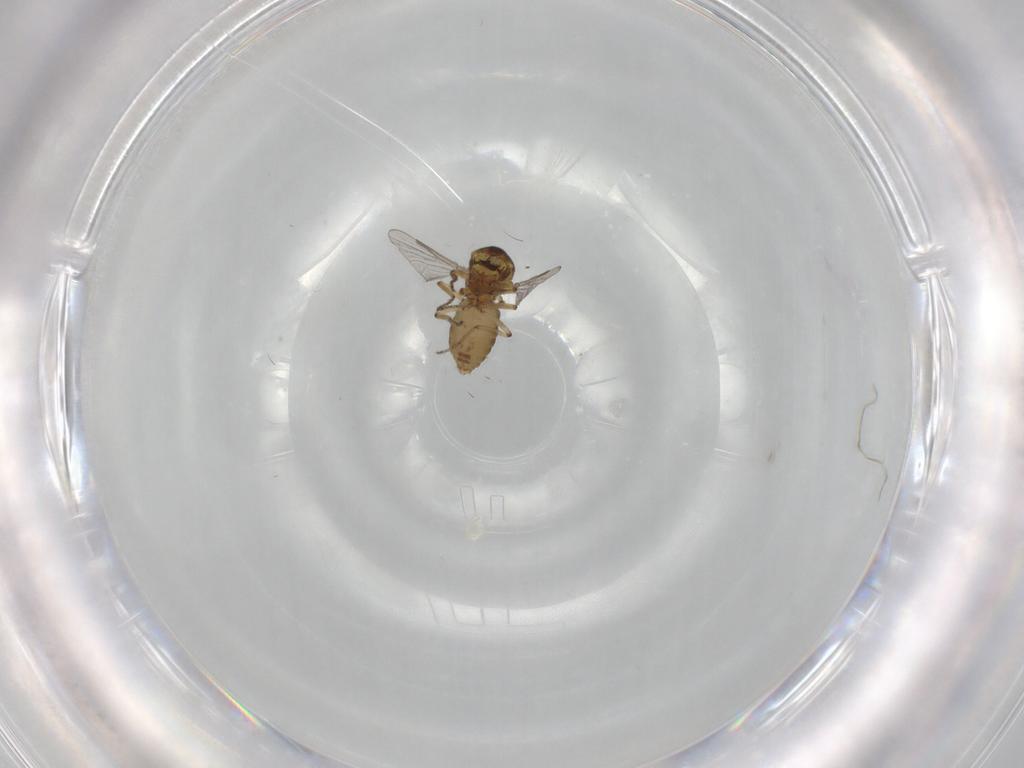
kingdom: Animalia
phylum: Arthropoda
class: Insecta
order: Diptera
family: Ceratopogonidae
